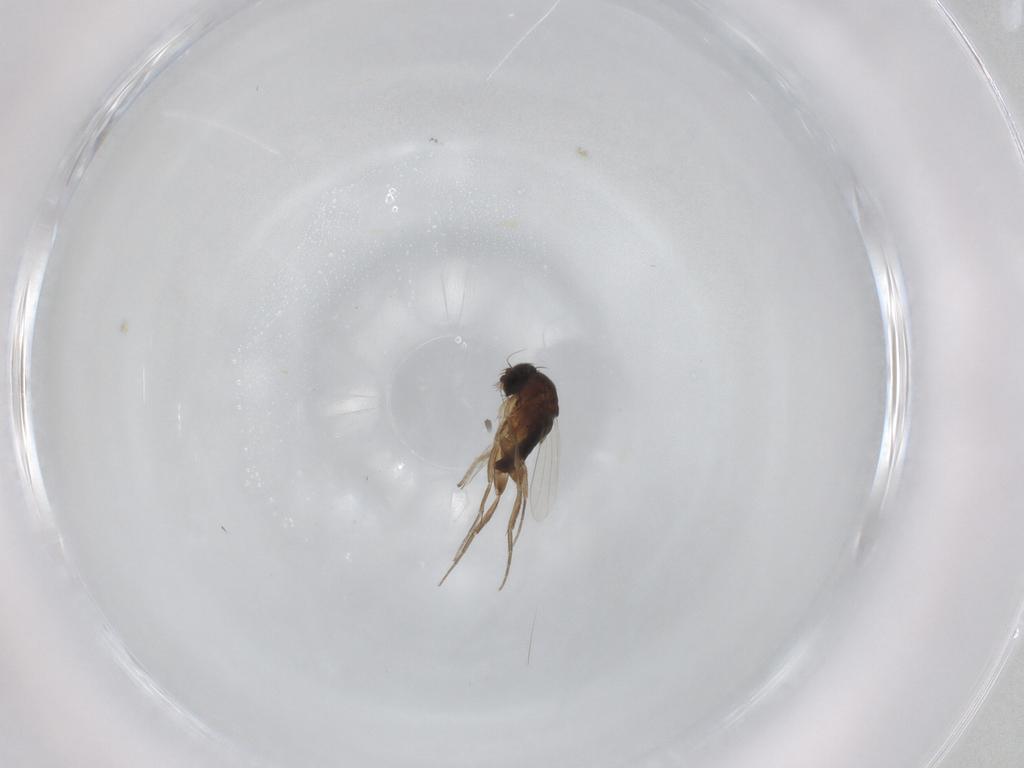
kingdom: Animalia
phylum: Arthropoda
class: Insecta
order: Diptera
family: Phoridae
